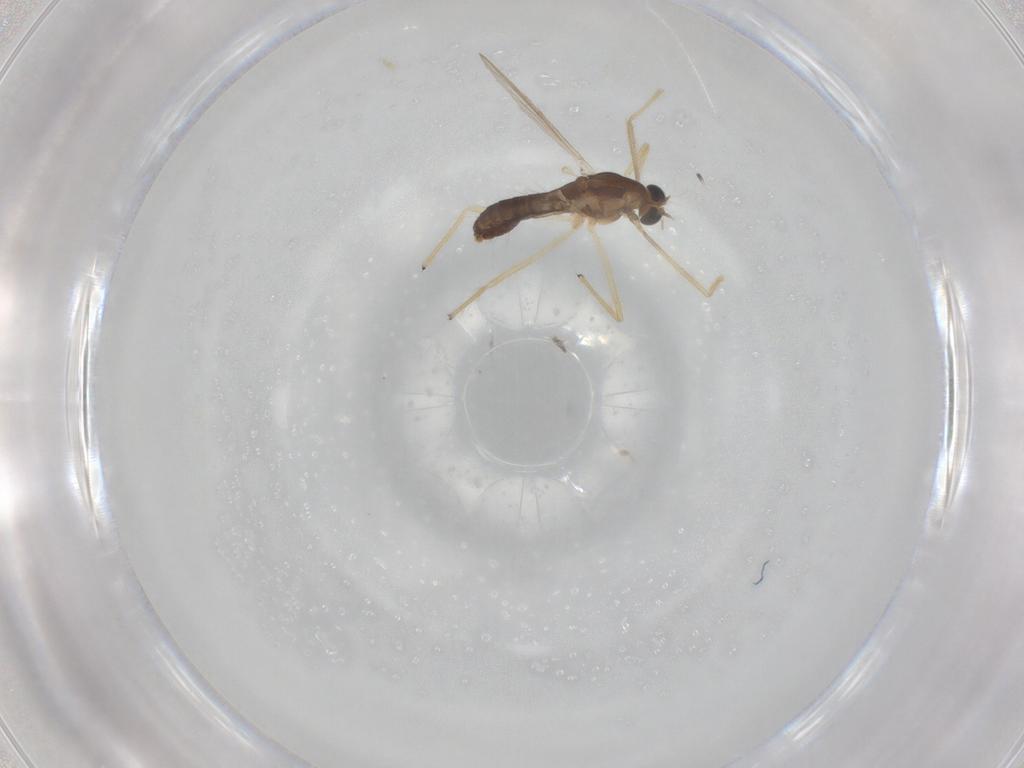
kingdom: Animalia
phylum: Arthropoda
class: Insecta
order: Diptera
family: Chironomidae
